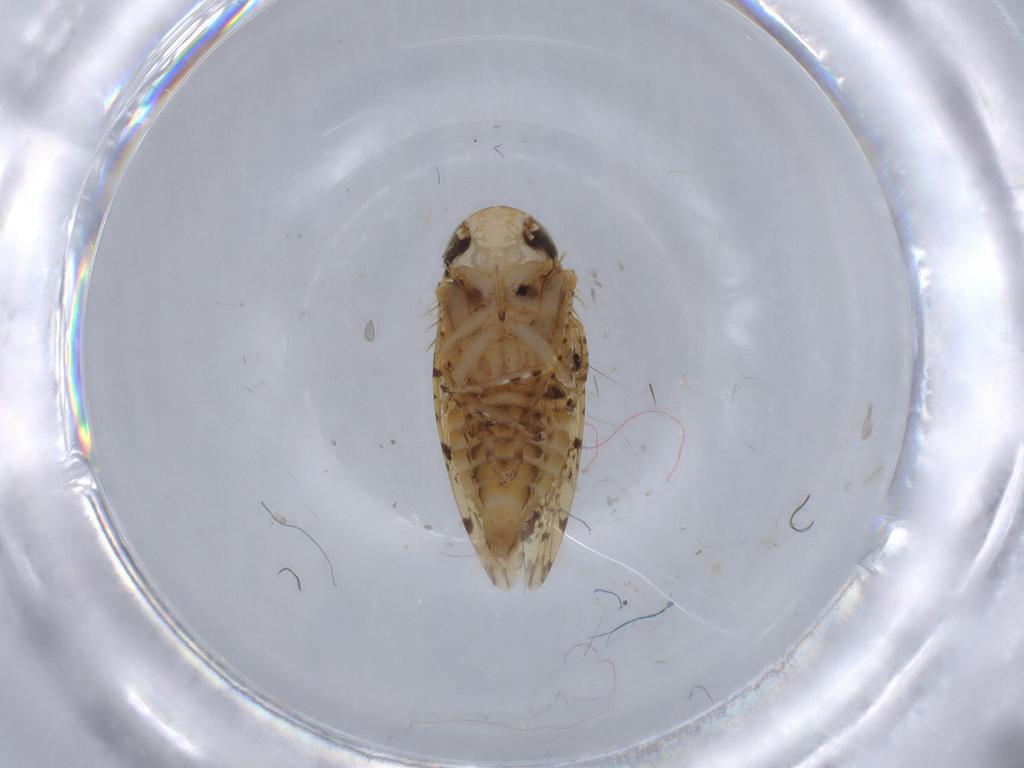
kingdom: Animalia
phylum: Arthropoda
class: Insecta
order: Hemiptera
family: Cicadellidae
